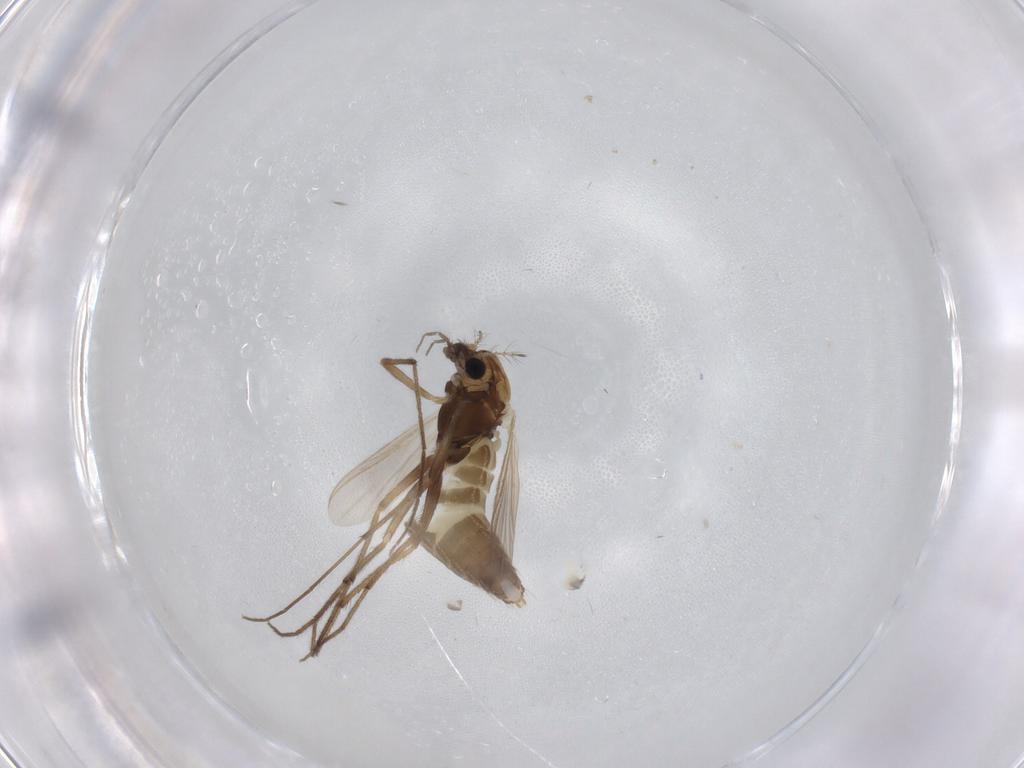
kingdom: Animalia
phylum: Arthropoda
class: Insecta
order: Diptera
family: Chironomidae
